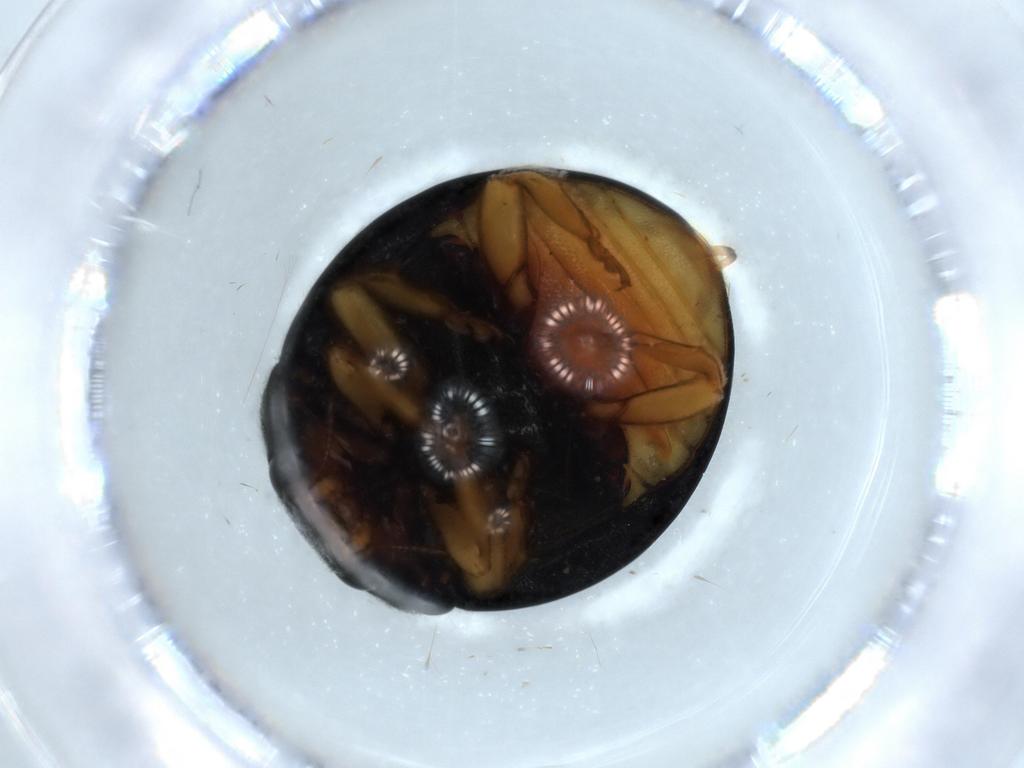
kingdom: Animalia
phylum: Arthropoda
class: Insecta
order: Coleoptera
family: Coccinellidae
